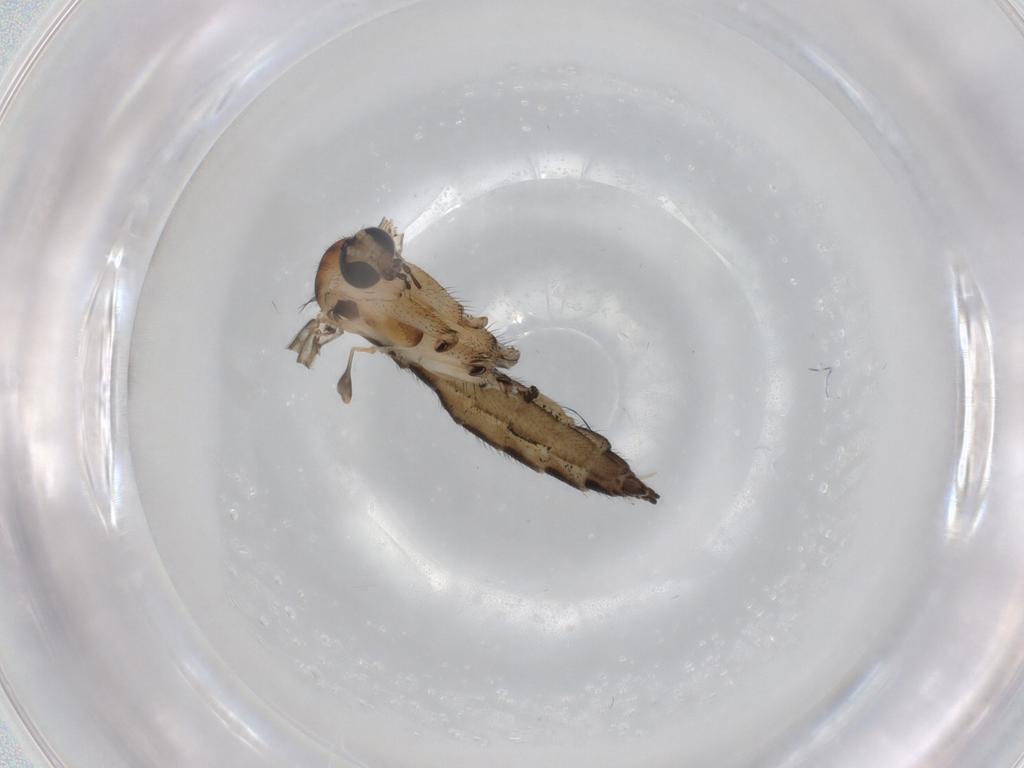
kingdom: Animalia
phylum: Arthropoda
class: Insecta
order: Diptera
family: Sciaridae
